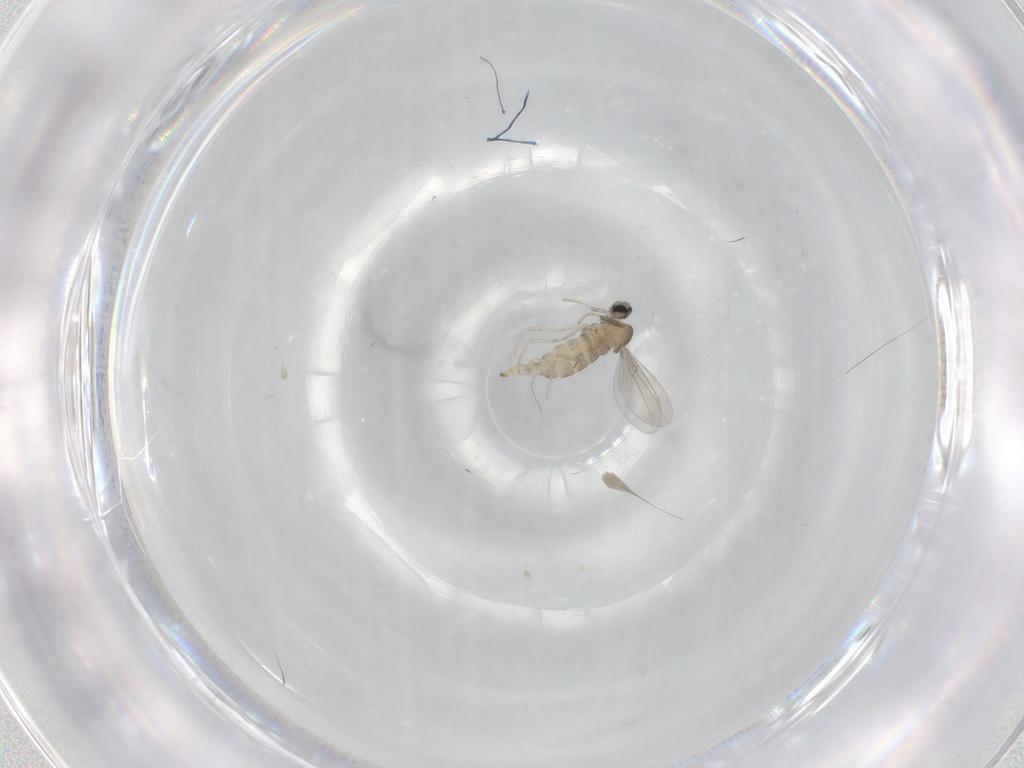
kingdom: Animalia
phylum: Arthropoda
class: Insecta
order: Diptera
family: Cecidomyiidae
